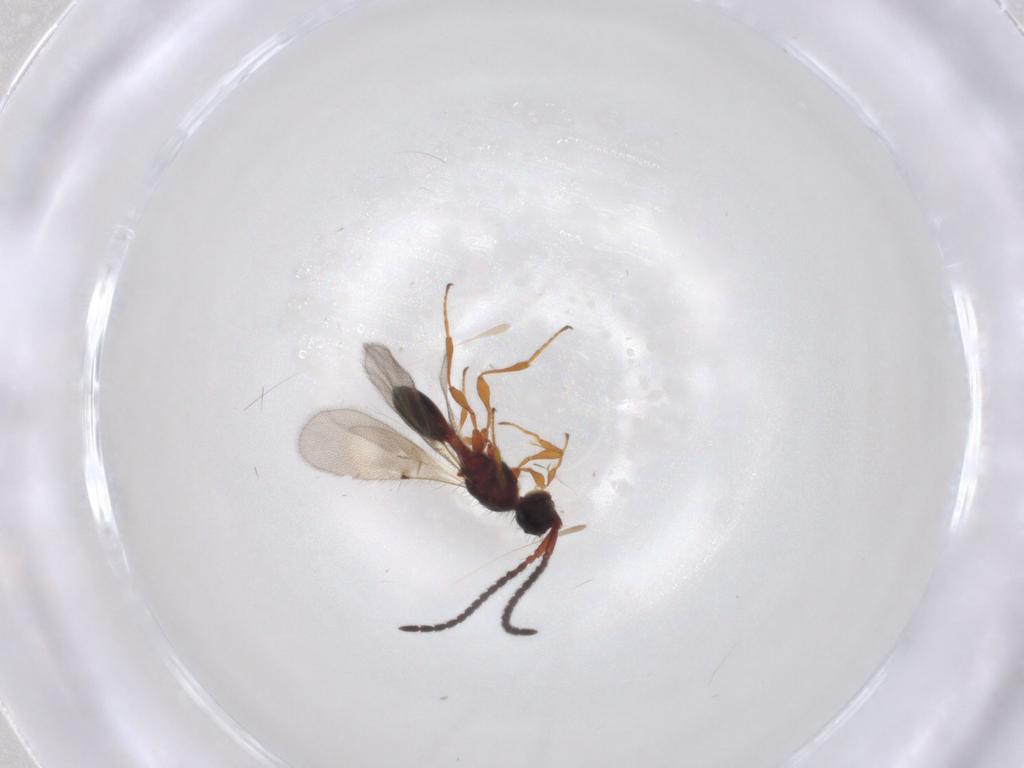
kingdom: Animalia
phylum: Arthropoda
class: Insecta
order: Hymenoptera
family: Diapriidae
